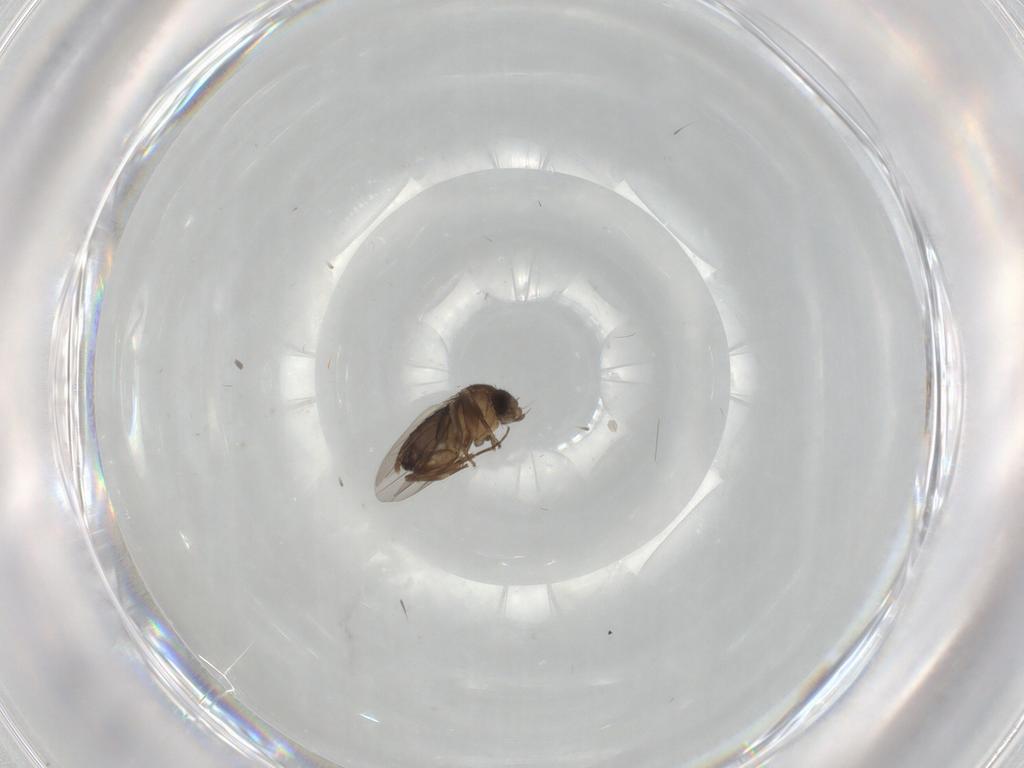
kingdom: Animalia
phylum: Arthropoda
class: Insecta
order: Diptera
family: Phoridae
